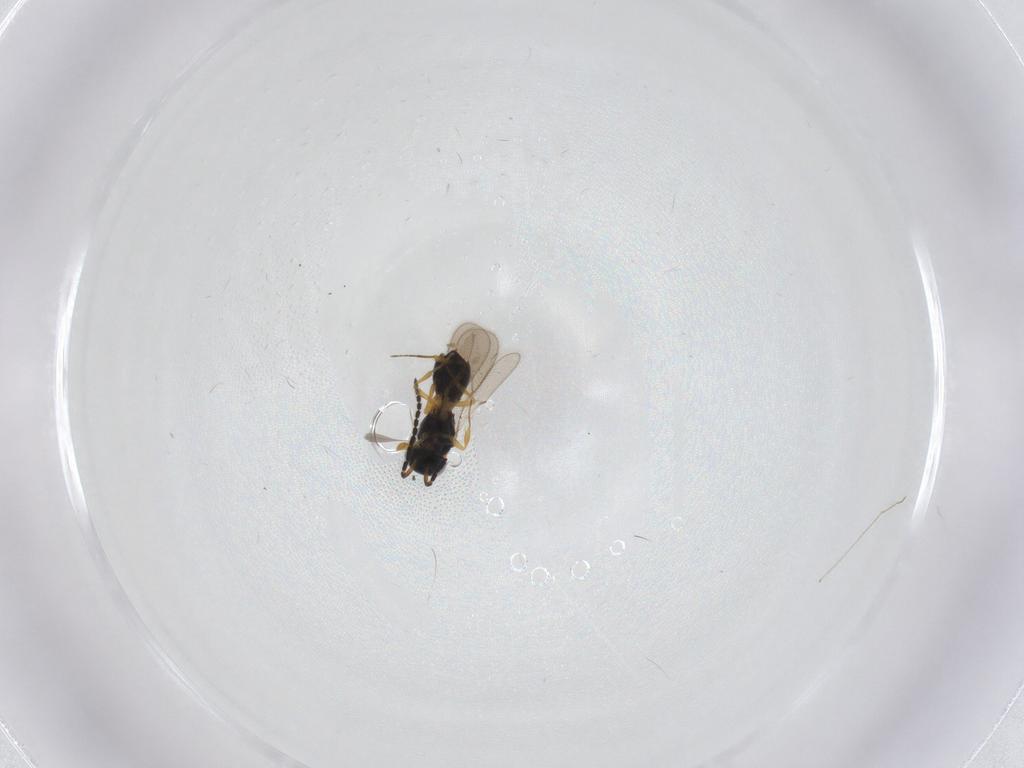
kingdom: Animalia
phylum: Arthropoda
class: Insecta
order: Hymenoptera
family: Scelionidae
